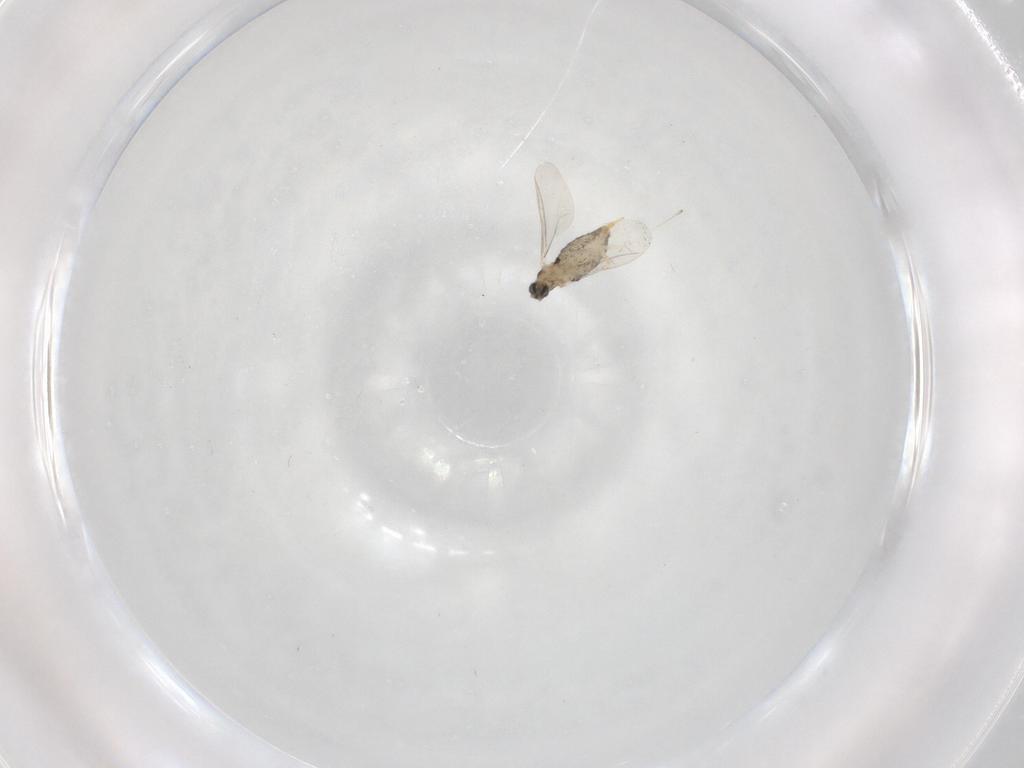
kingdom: Animalia
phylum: Arthropoda
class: Insecta
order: Diptera
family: Cecidomyiidae
